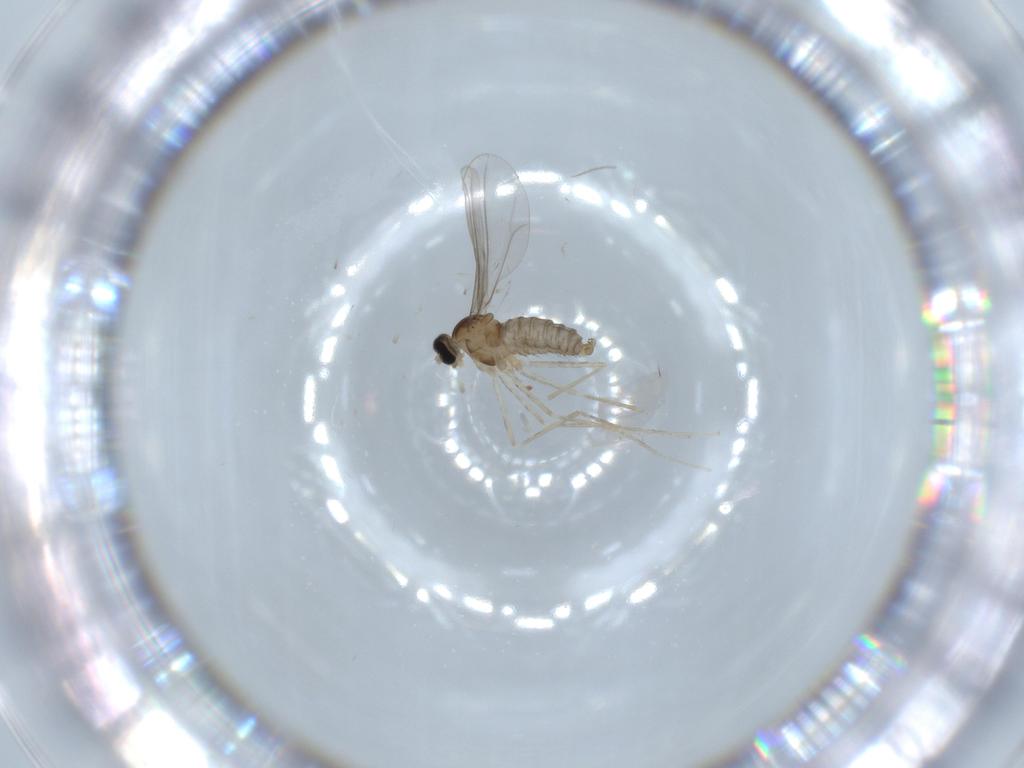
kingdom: Animalia
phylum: Arthropoda
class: Insecta
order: Diptera
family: Cecidomyiidae
